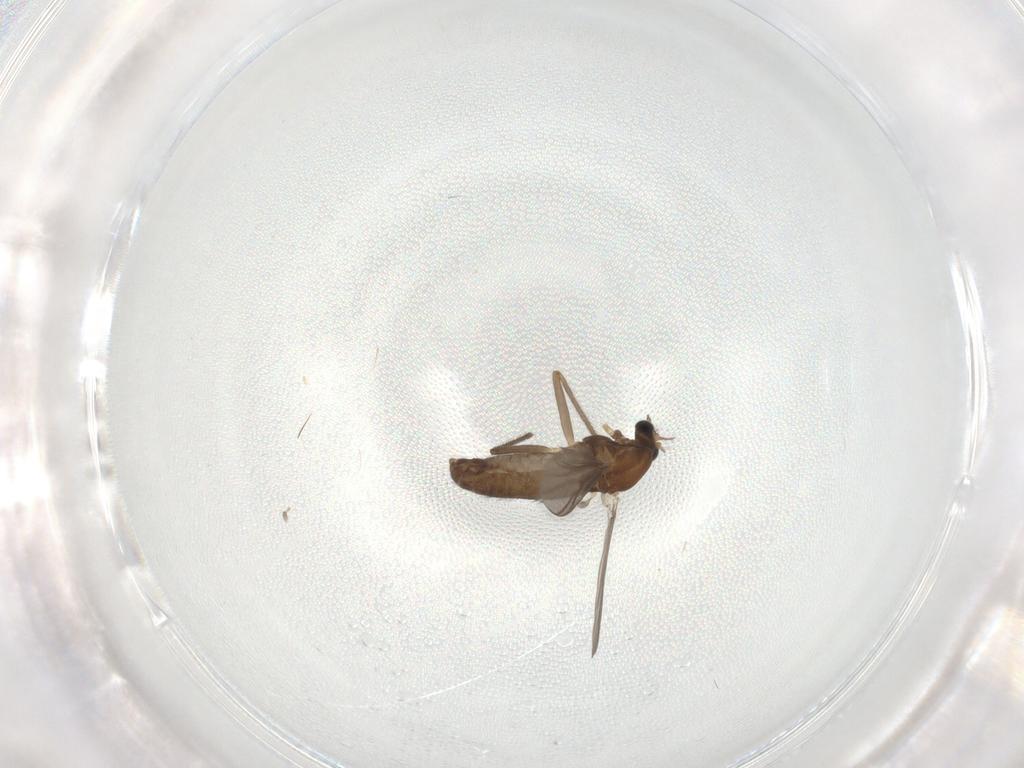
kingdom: Animalia
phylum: Arthropoda
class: Insecta
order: Diptera
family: Chironomidae
